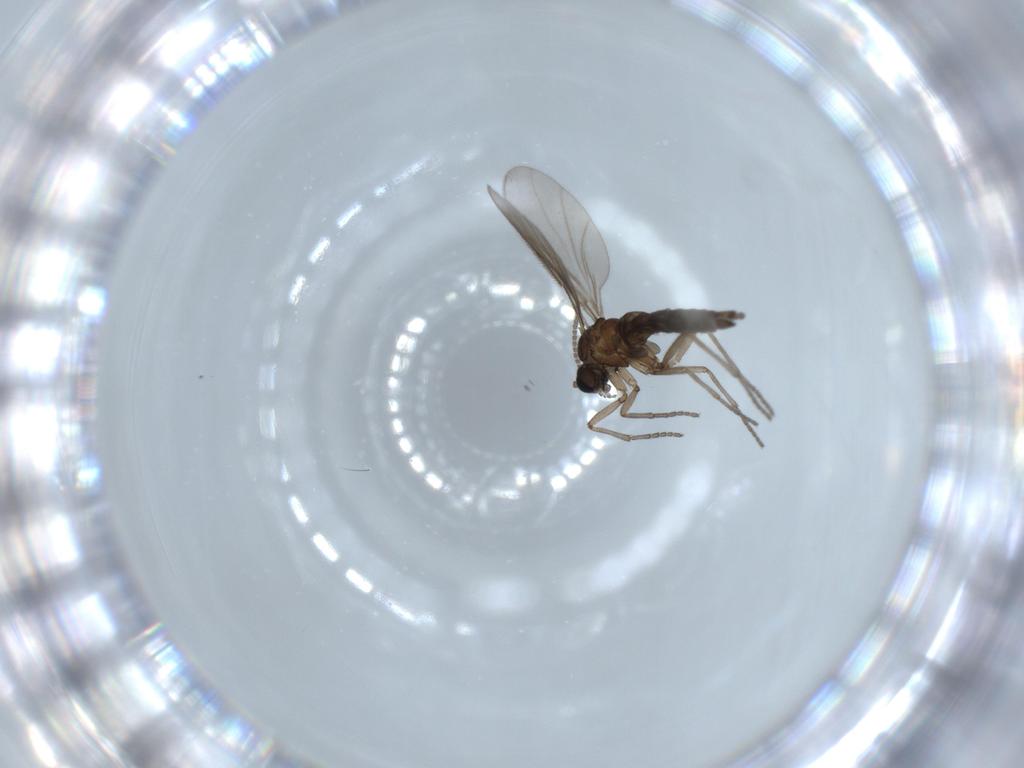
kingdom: Animalia
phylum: Arthropoda
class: Insecta
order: Diptera
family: Sciaridae
